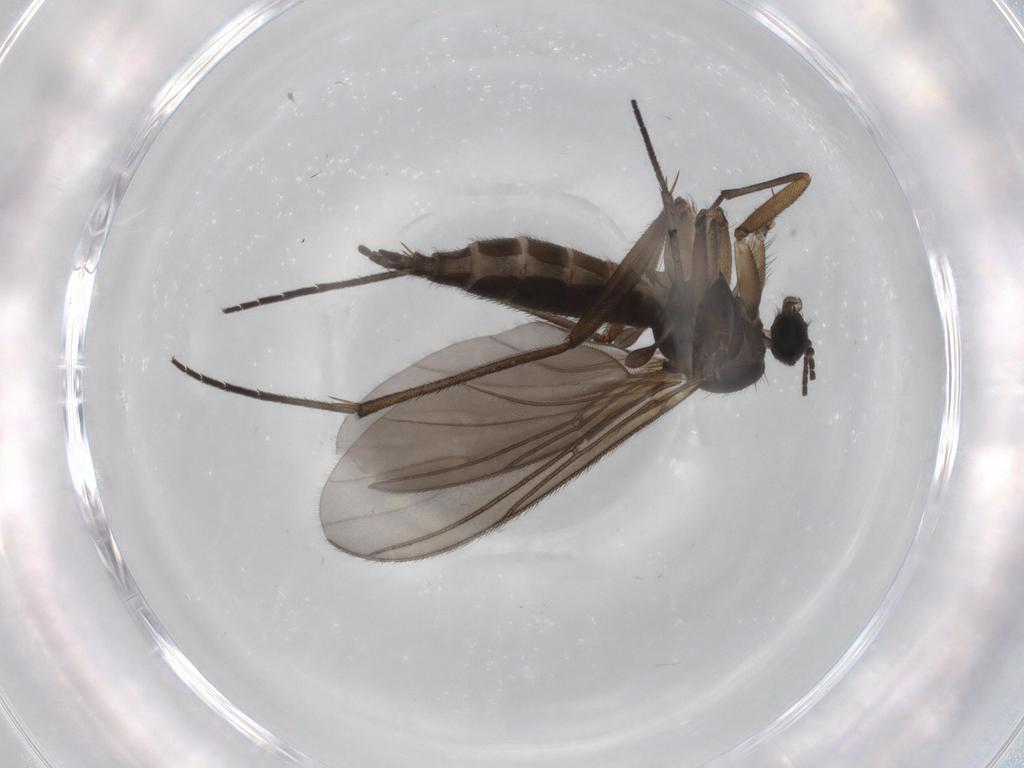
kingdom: Animalia
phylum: Arthropoda
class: Insecta
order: Diptera
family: Sciaridae
